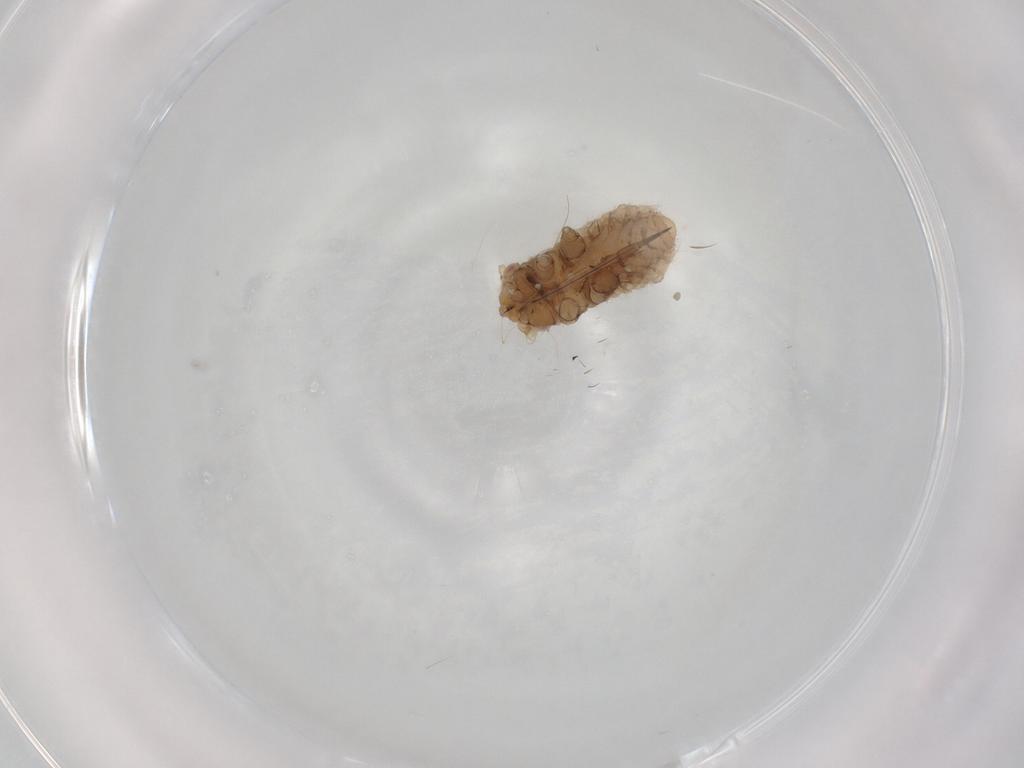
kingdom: Animalia
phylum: Arthropoda
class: Insecta
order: Hemiptera
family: Aphididae
